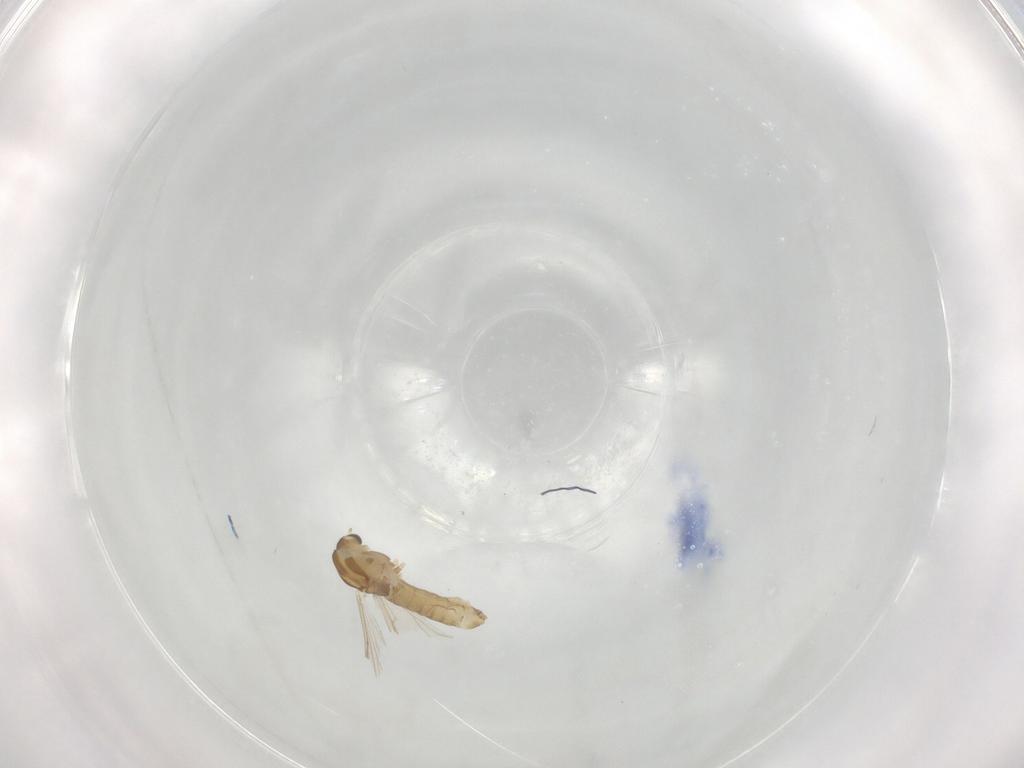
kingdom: Animalia
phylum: Arthropoda
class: Insecta
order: Diptera
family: Chironomidae
